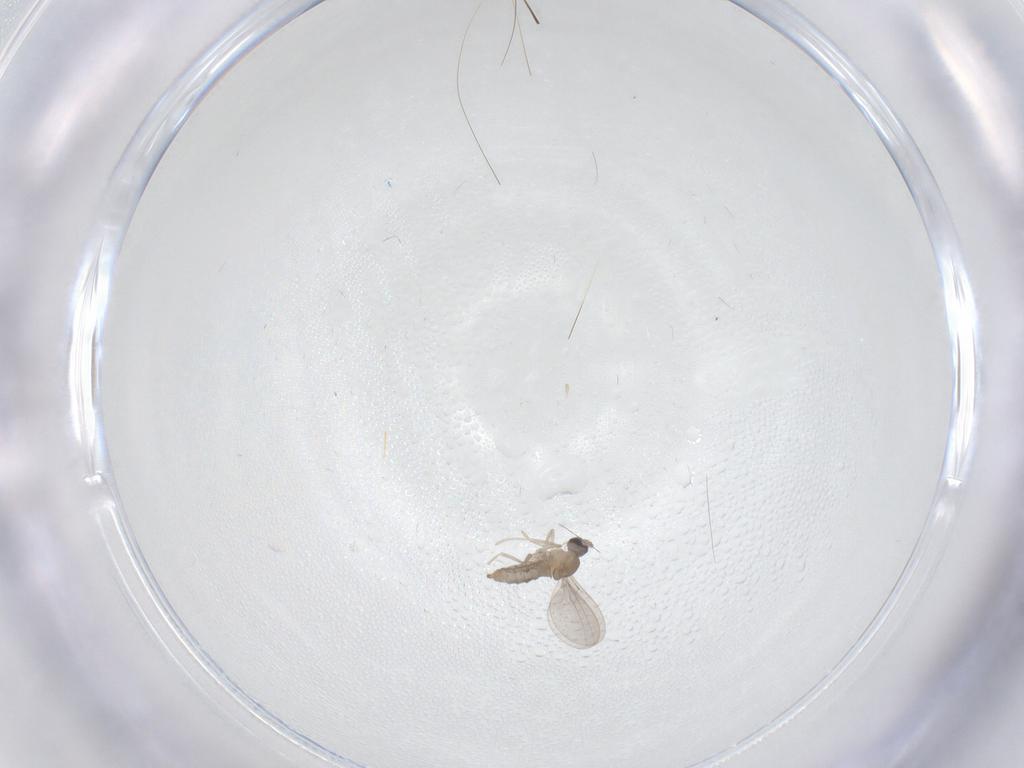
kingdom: Animalia
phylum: Arthropoda
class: Insecta
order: Diptera
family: Cecidomyiidae
